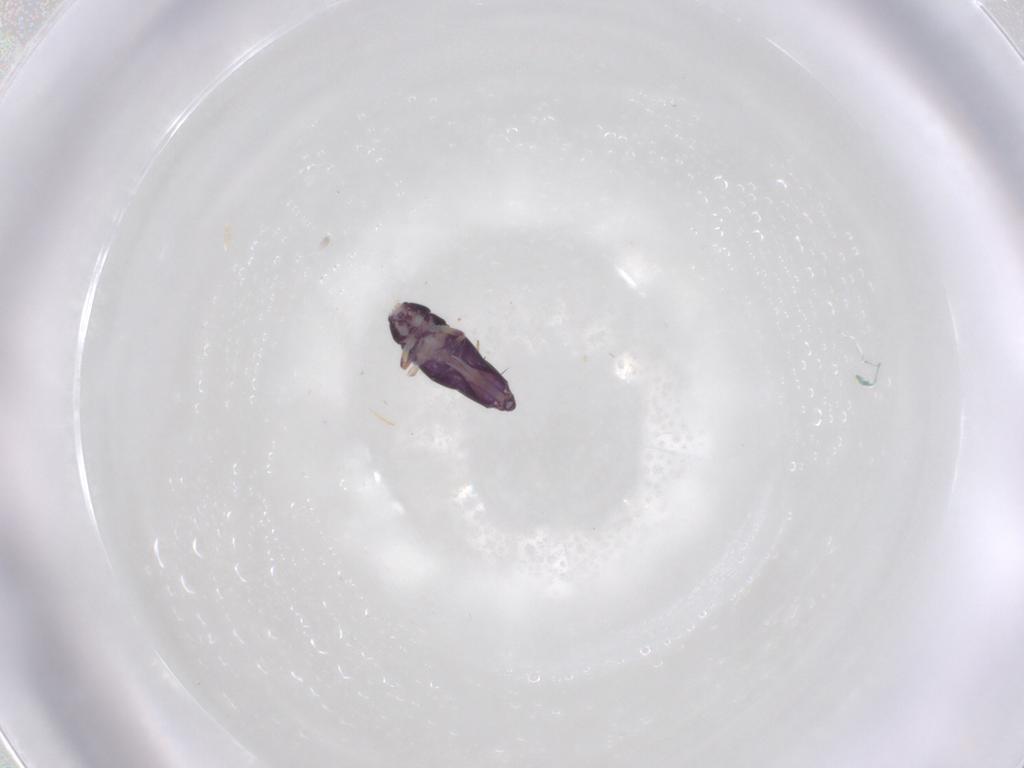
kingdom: Animalia
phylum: Arthropoda
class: Collembola
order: Entomobryomorpha
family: Entomobryidae
